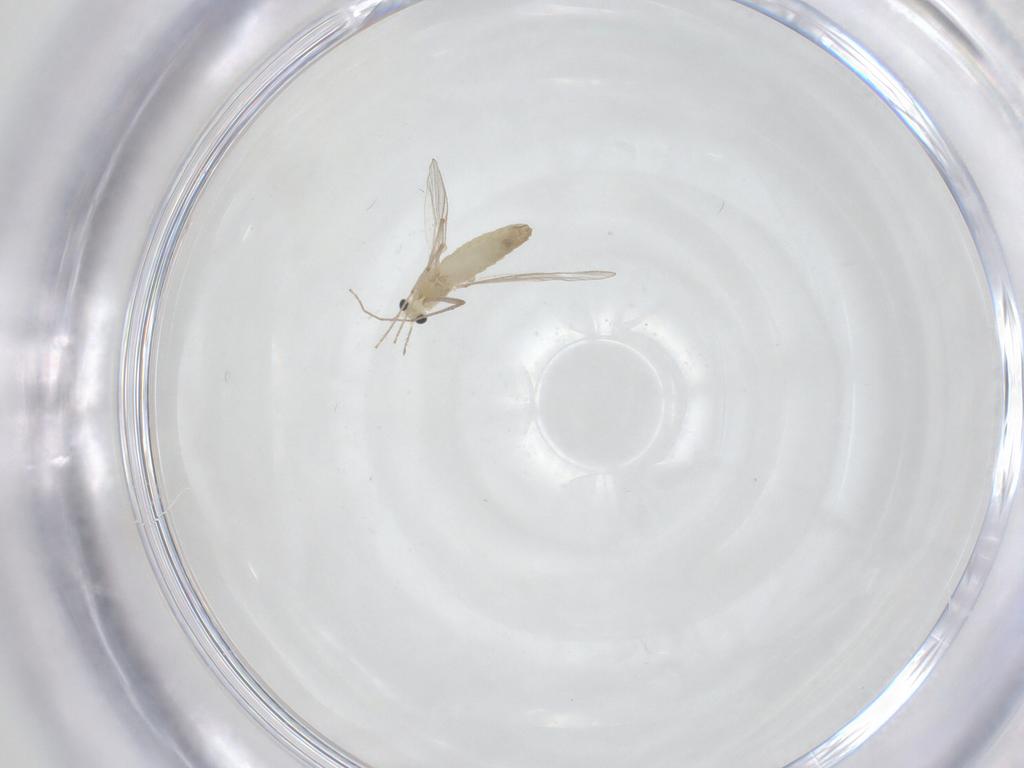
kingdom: Animalia
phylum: Arthropoda
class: Insecta
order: Diptera
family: Chironomidae
